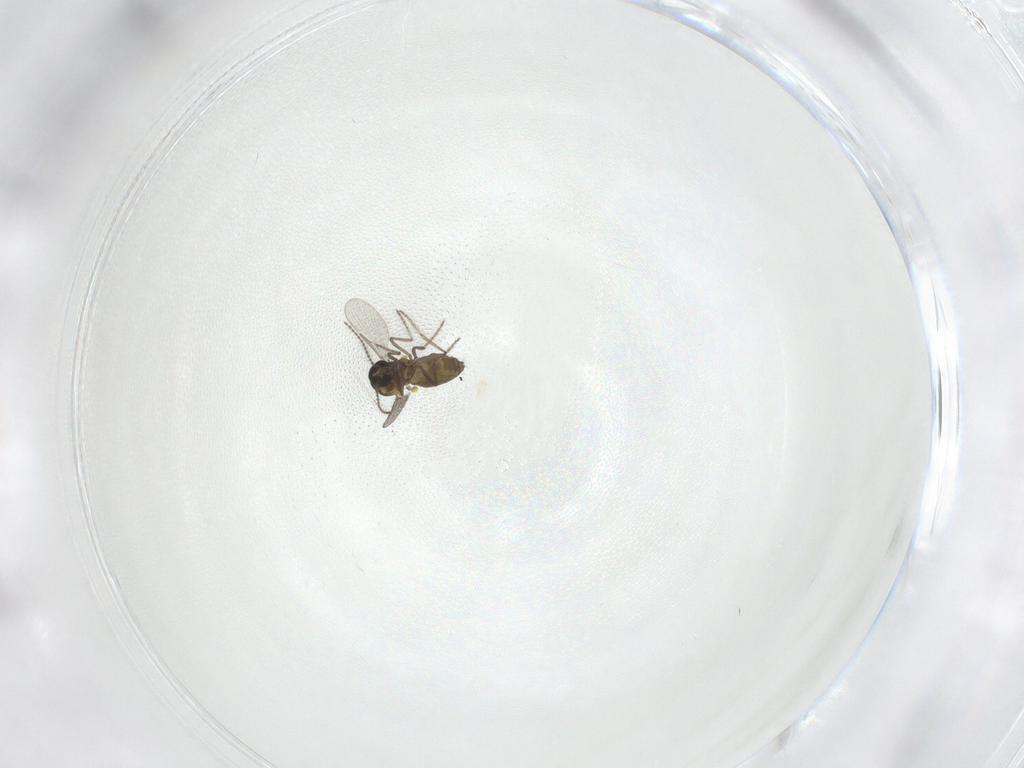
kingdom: Animalia
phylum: Arthropoda
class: Insecta
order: Diptera
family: Ceratopogonidae
